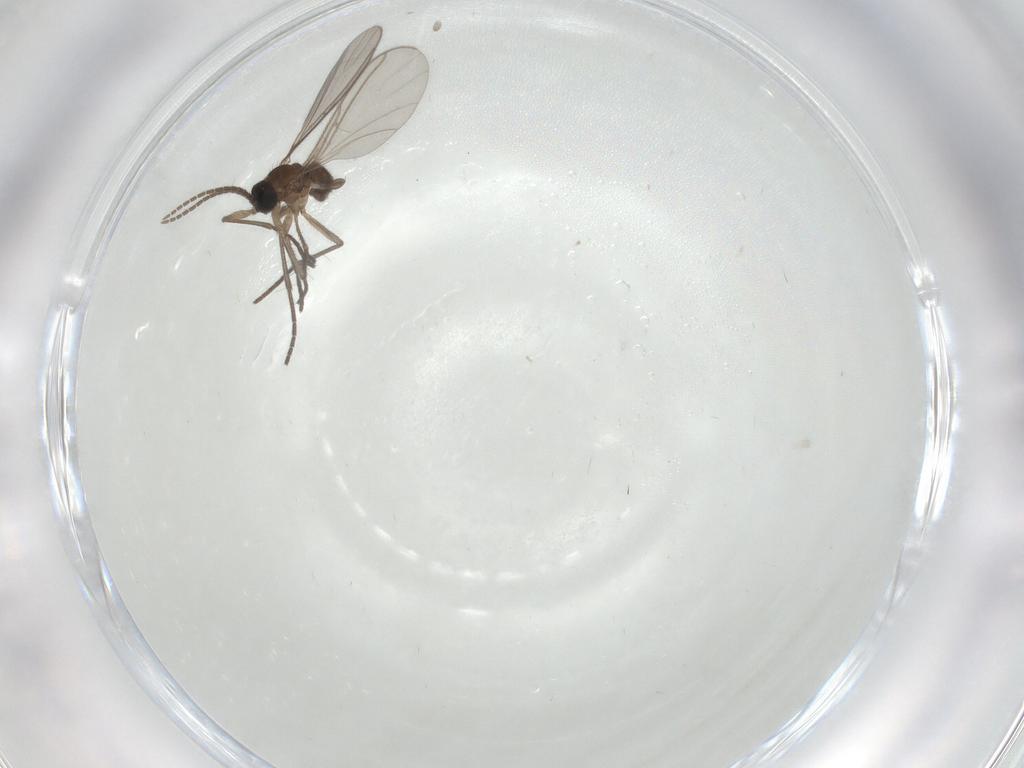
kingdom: Animalia
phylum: Arthropoda
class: Insecta
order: Diptera
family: Sciaridae
